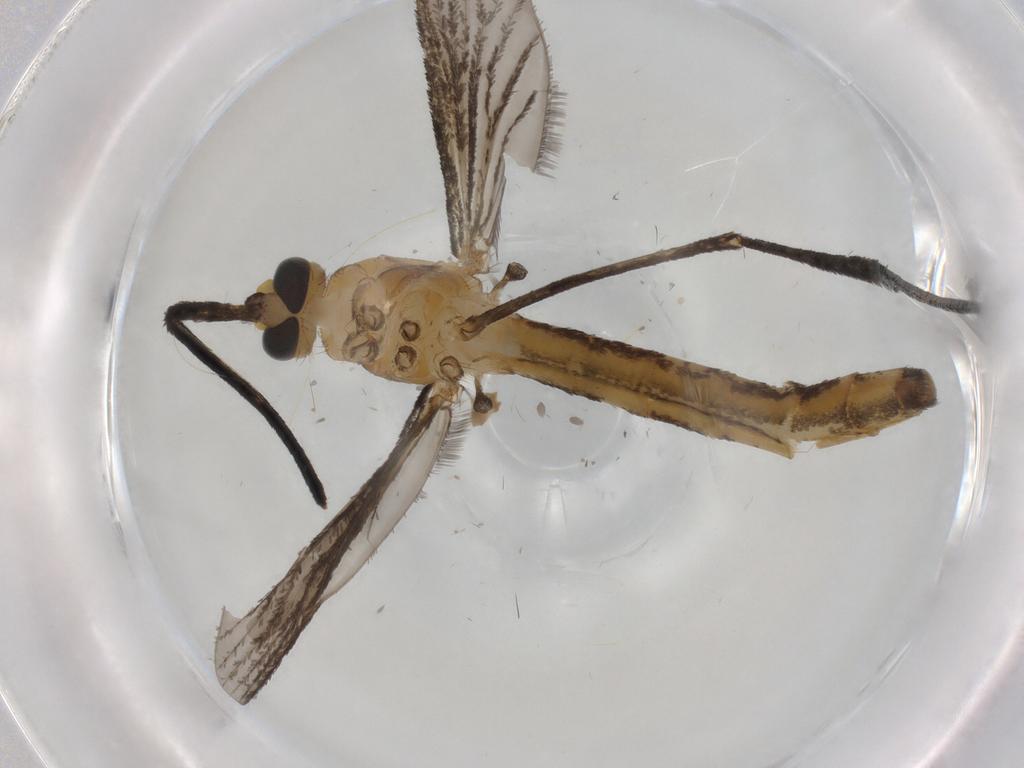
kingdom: Animalia
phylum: Arthropoda
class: Insecta
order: Diptera
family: Chironomidae
